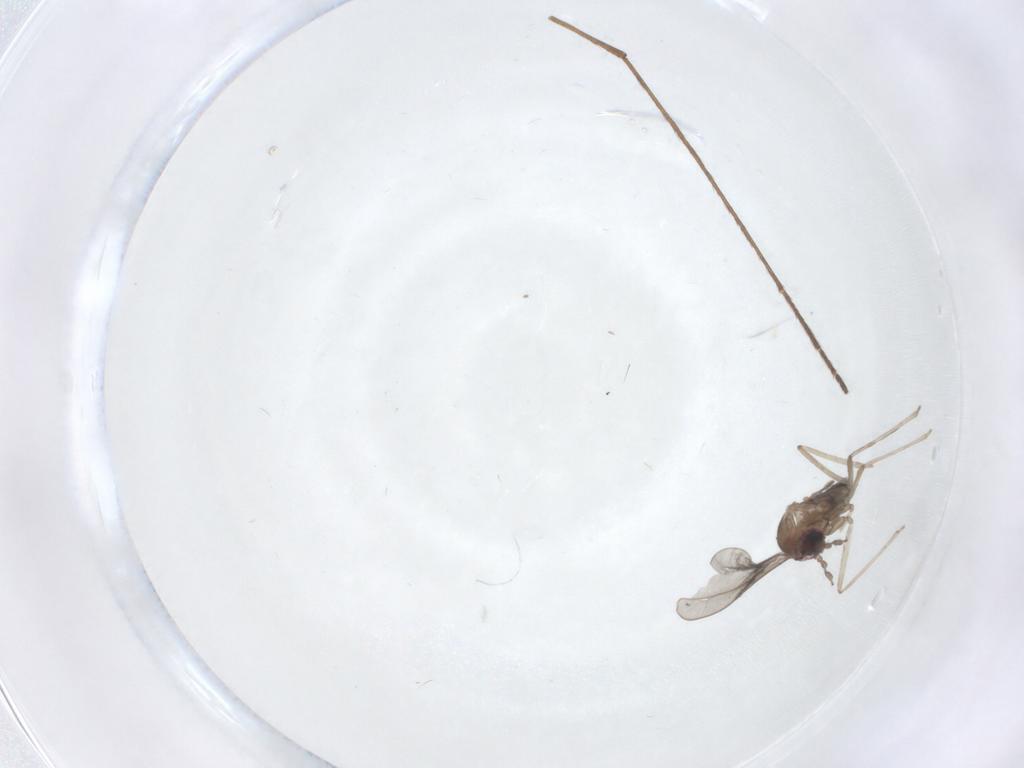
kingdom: Animalia
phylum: Arthropoda
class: Insecta
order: Diptera
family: Cecidomyiidae
